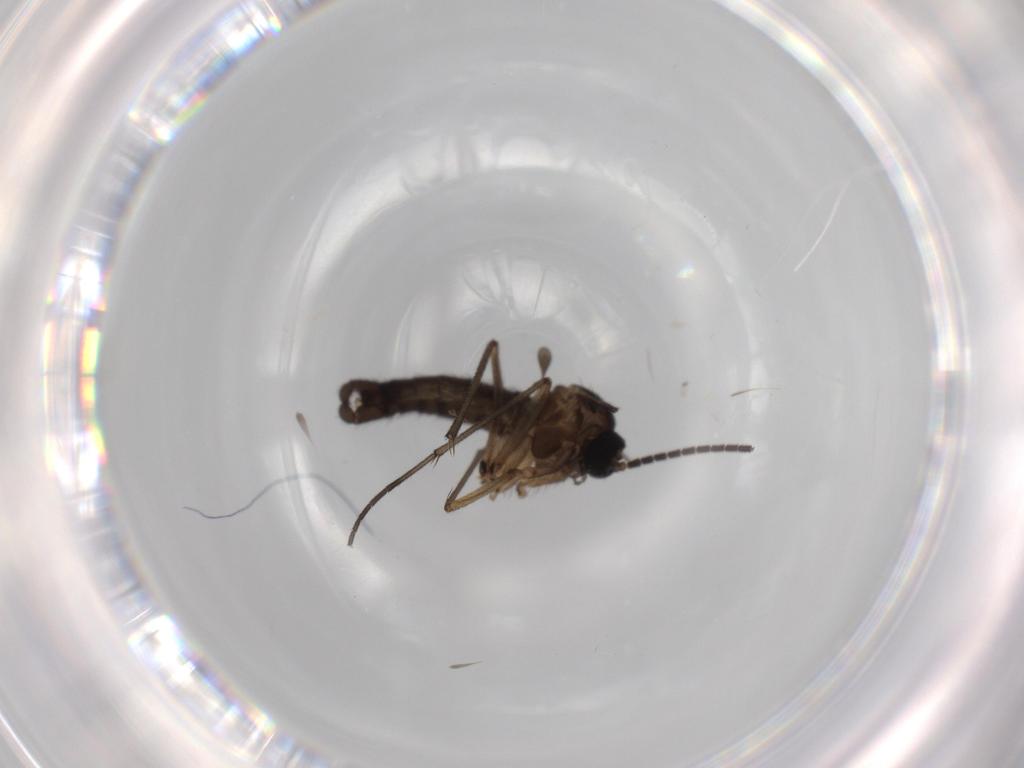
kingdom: Animalia
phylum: Arthropoda
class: Insecta
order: Diptera
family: Sciaridae
